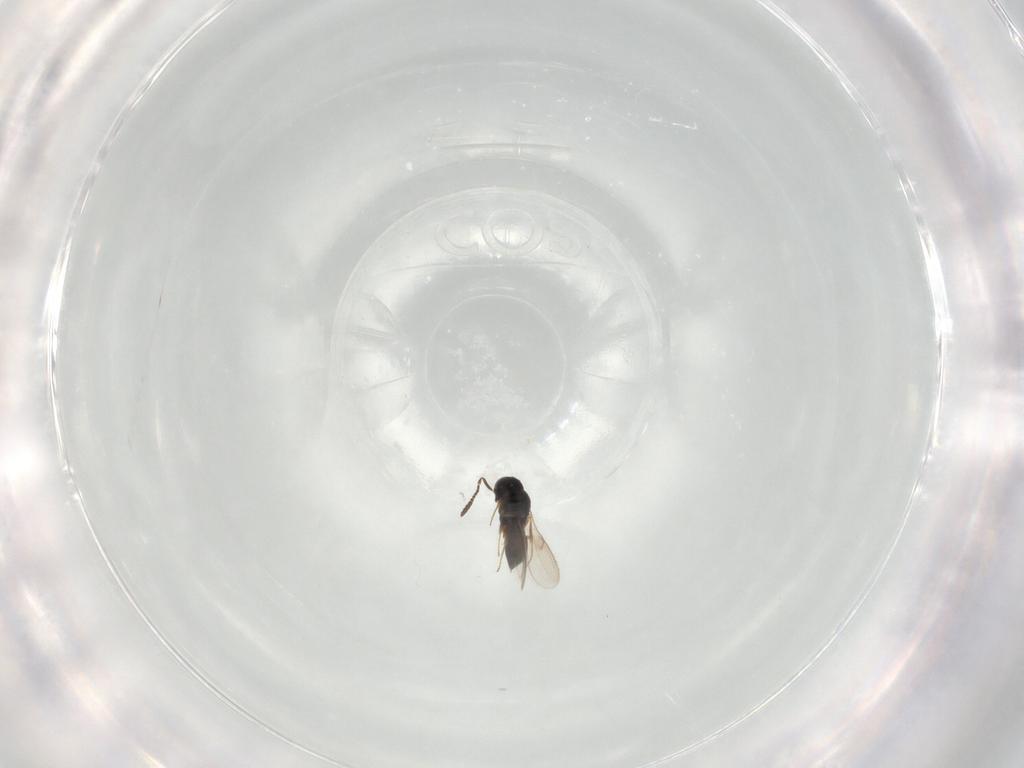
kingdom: Animalia
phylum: Arthropoda
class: Insecta
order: Hymenoptera
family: Scelionidae
